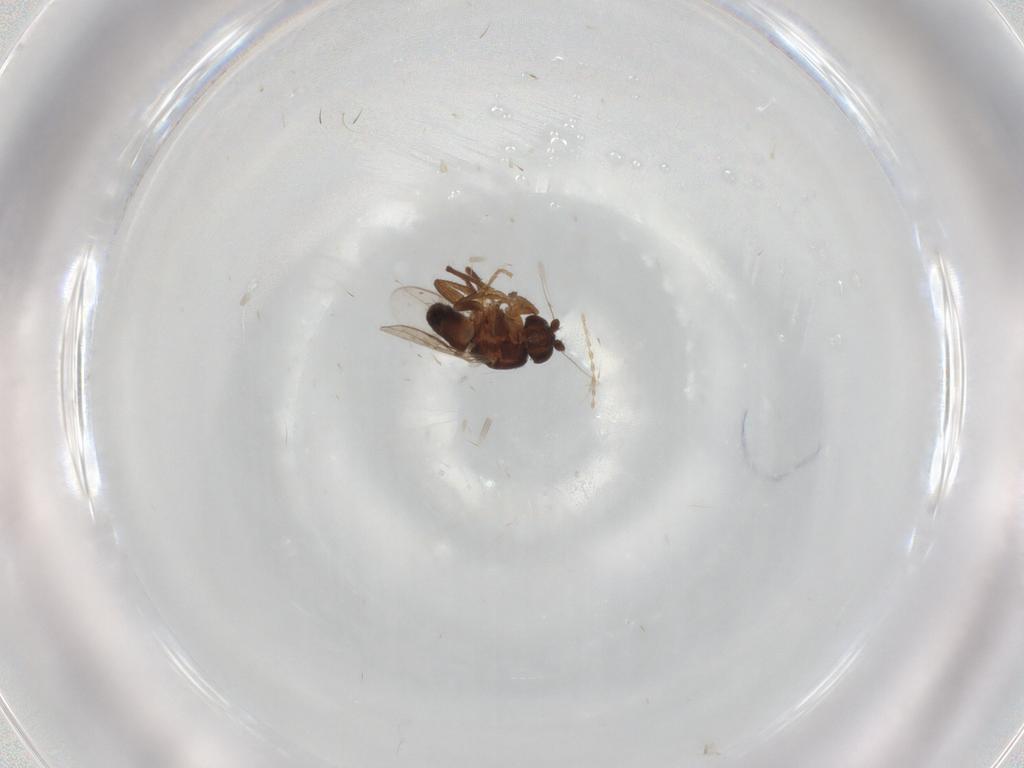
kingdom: Animalia
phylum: Arthropoda
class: Insecta
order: Diptera
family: Sphaeroceridae
